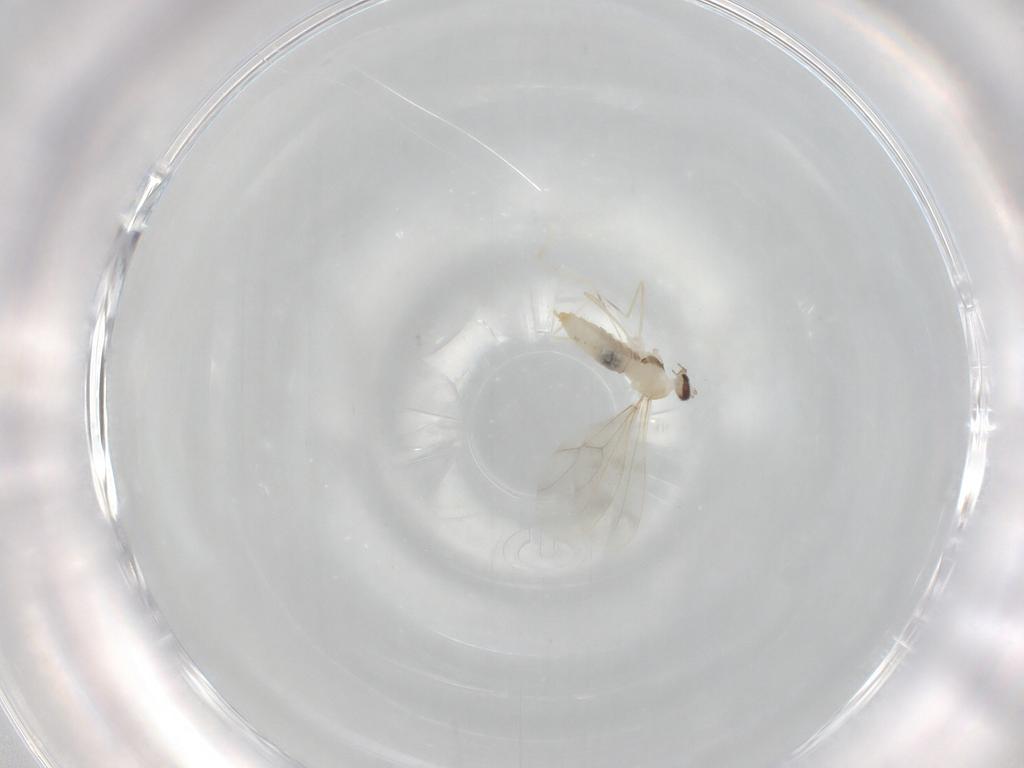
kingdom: Animalia
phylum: Arthropoda
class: Insecta
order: Diptera
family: Cecidomyiidae
